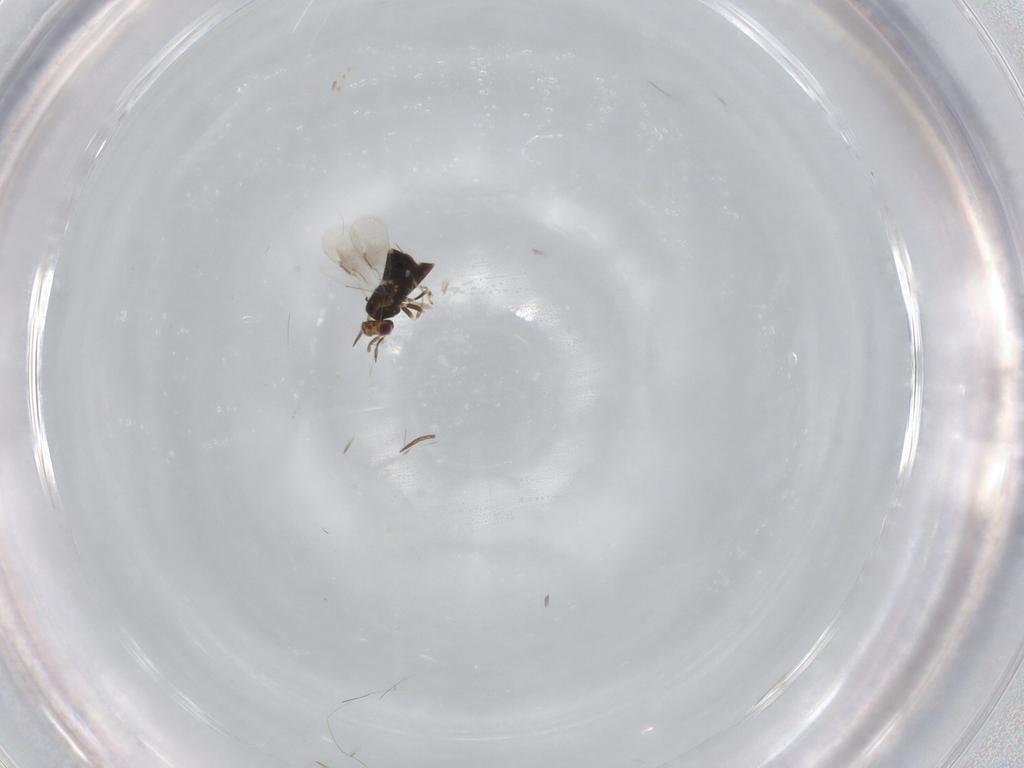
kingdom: Animalia
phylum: Arthropoda
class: Insecta
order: Hymenoptera
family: Aphelinidae
